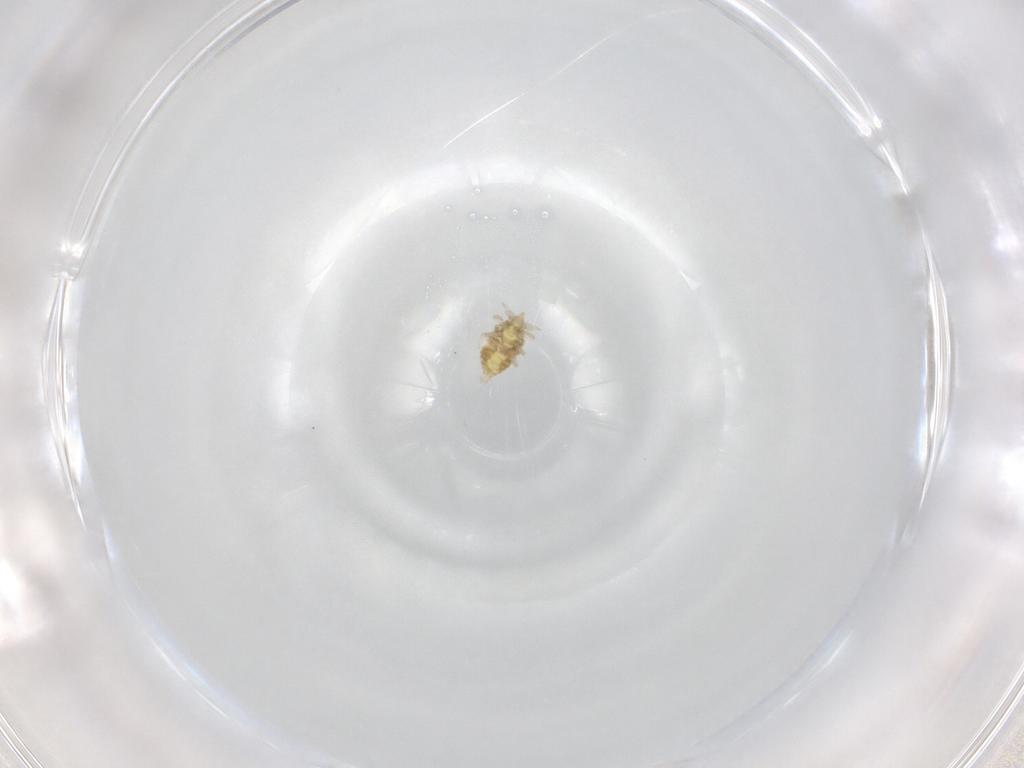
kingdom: Animalia
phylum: Arthropoda
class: Insecta
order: Neuroptera
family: Coniopterygidae
